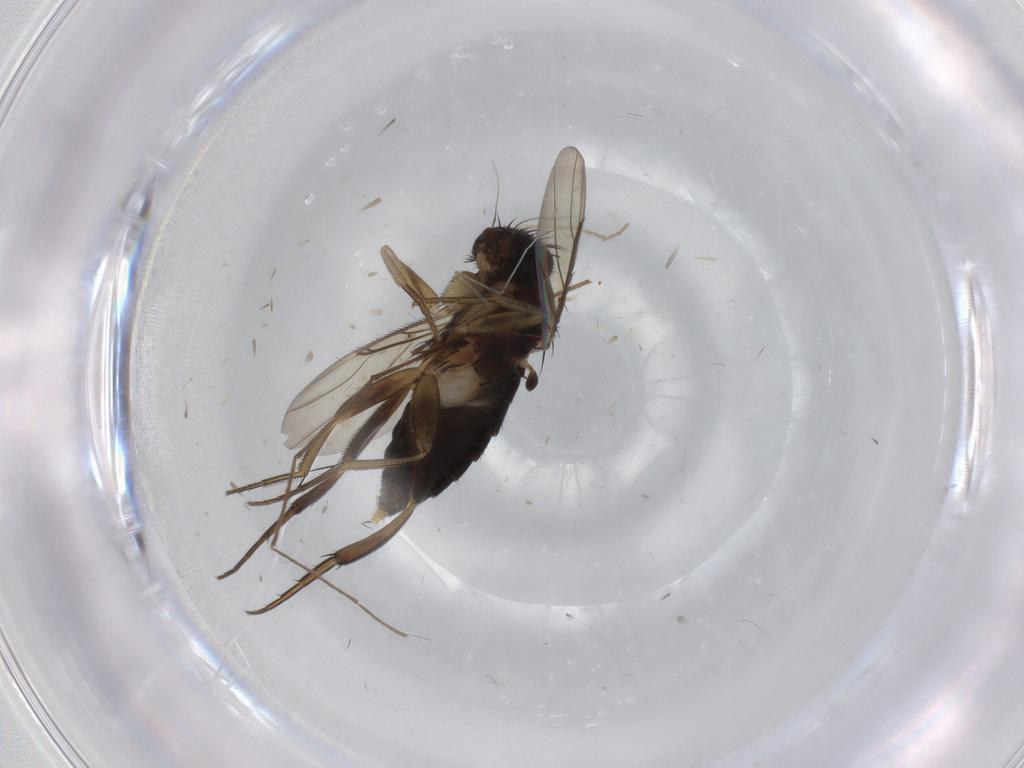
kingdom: Animalia
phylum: Arthropoda
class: Insecta
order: Diptera
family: Phoridae
